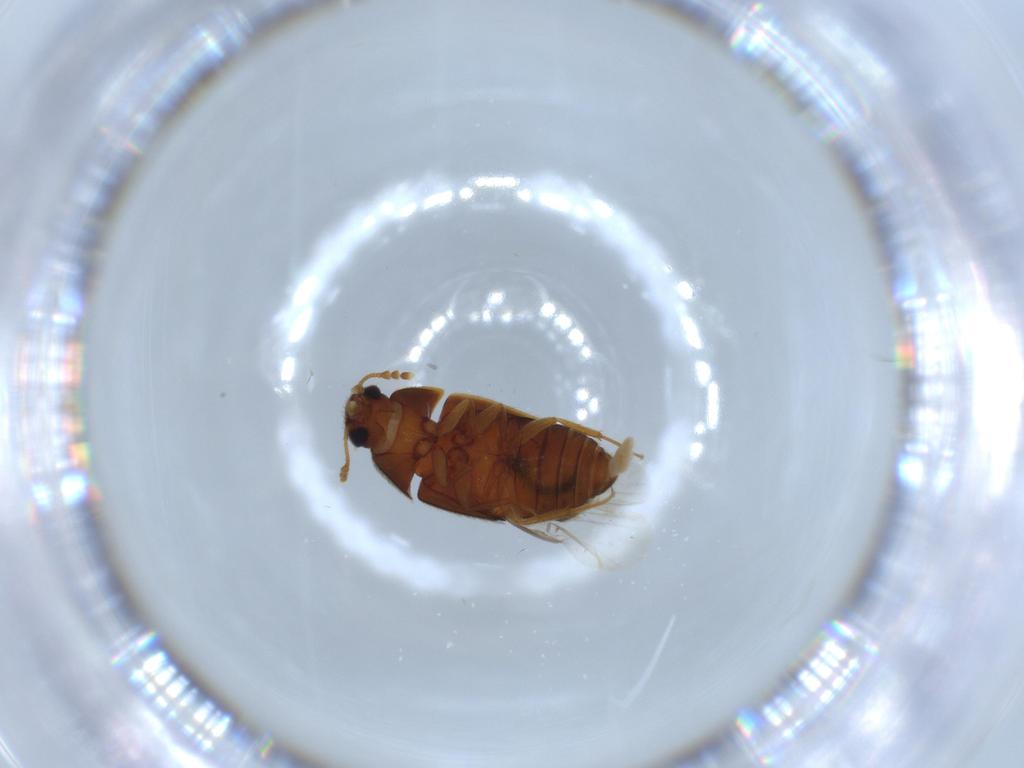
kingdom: Animalia
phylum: Arthropoda
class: Insecta
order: Coleoptera
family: Mycetophagidae
